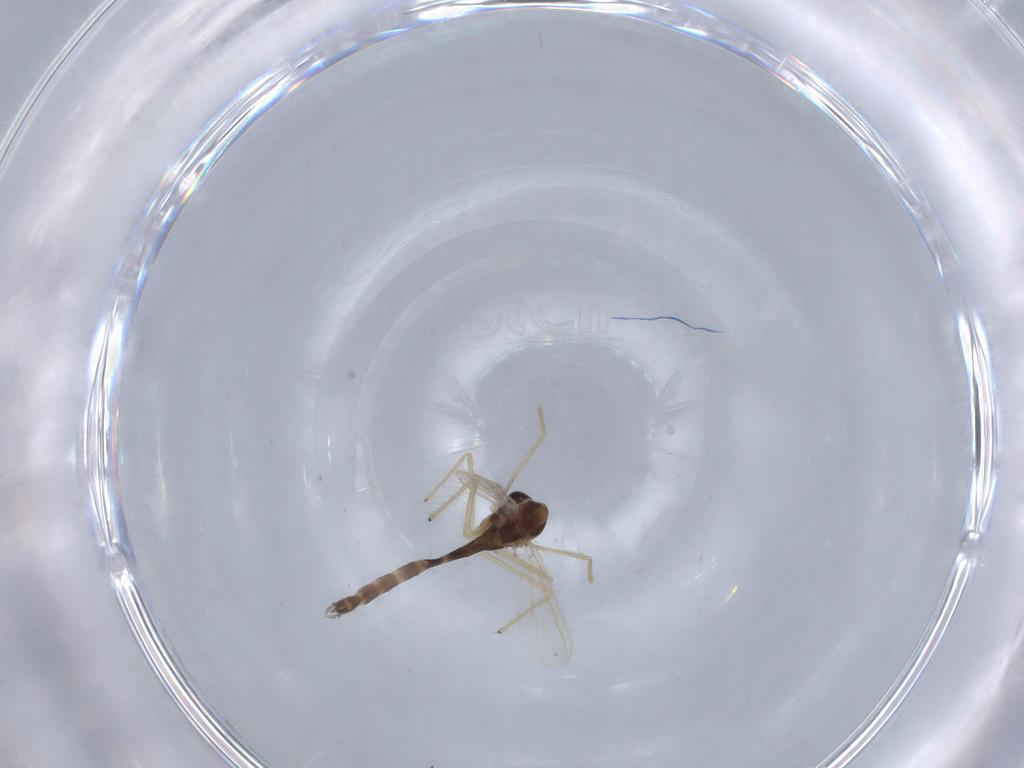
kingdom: Animalia
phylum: Arthropoda
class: Insecta
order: Diptera
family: Chironomidae
